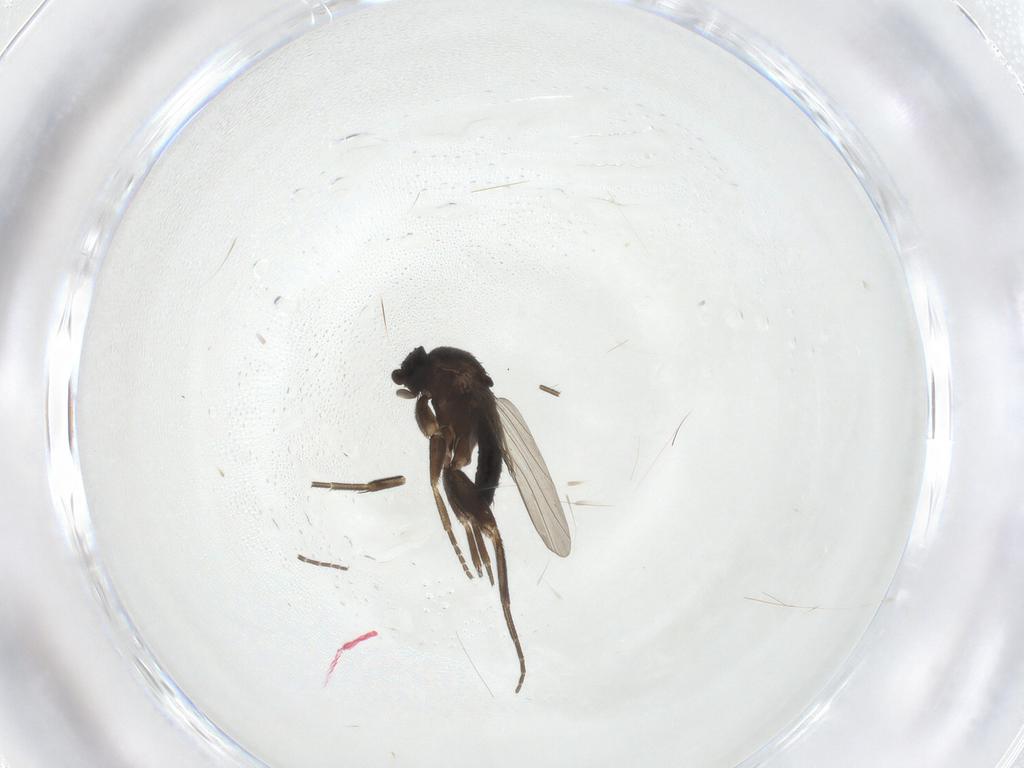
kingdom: Animalia
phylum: Arthropoda
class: Insecta
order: Diptera
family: Phoridae
